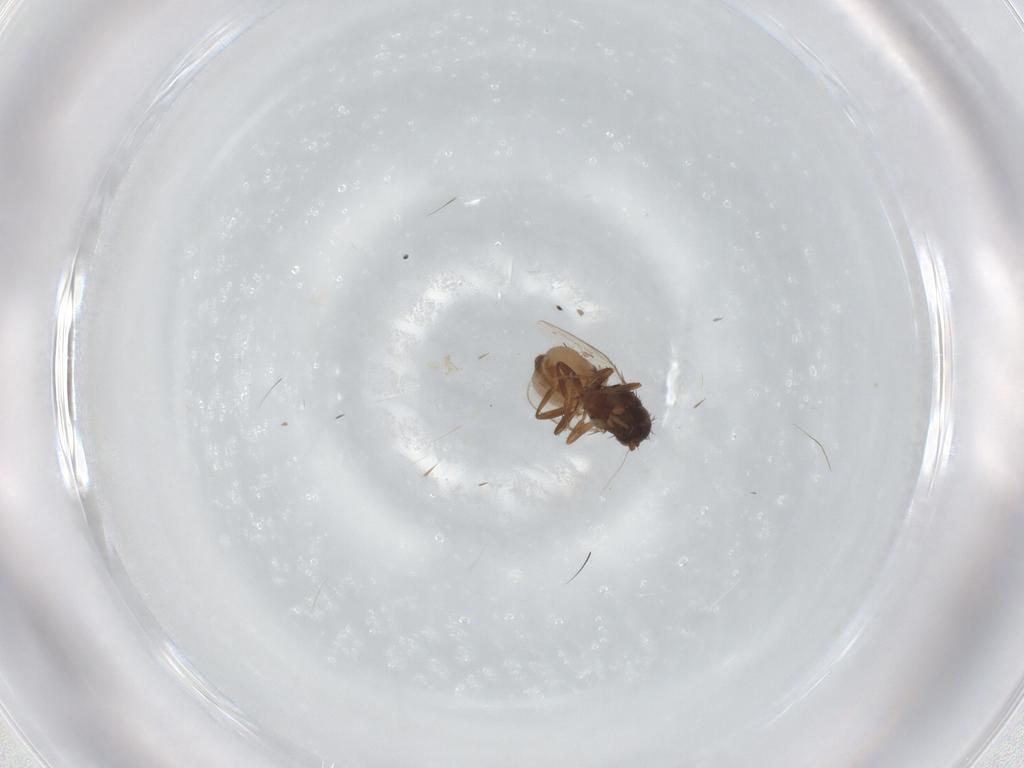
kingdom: Animalia
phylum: Arthropoda
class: Insecta
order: Diptera
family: Sphaeroceridae
